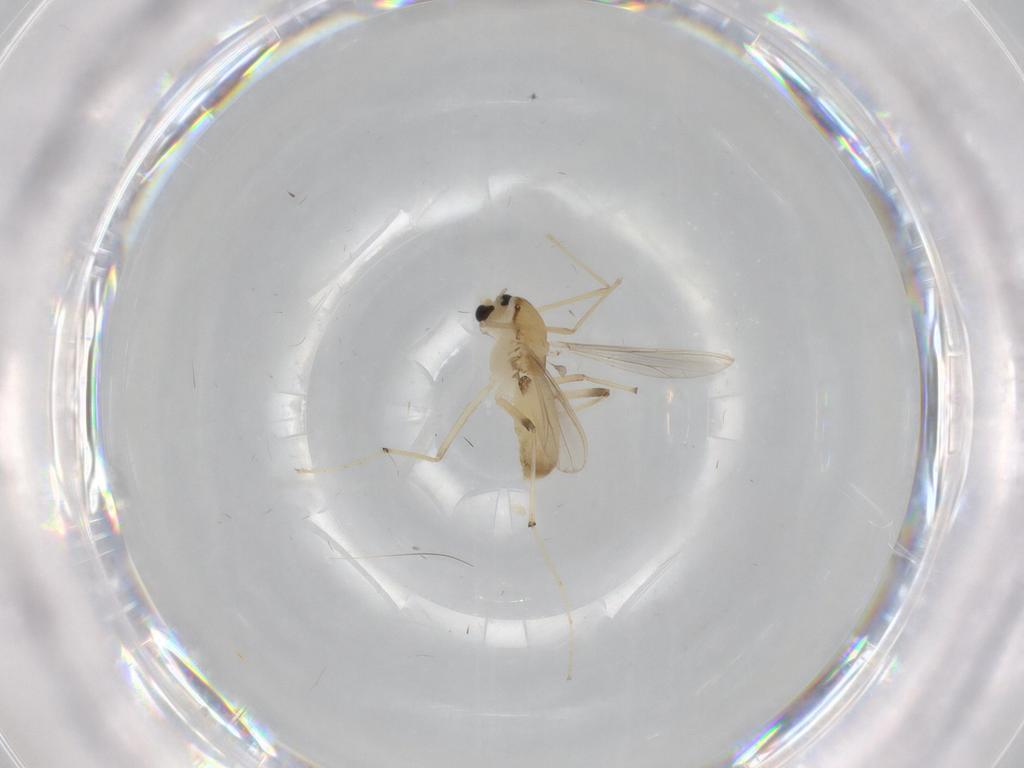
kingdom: Animalia
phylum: Arthropoda
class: Insecta
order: Diptera
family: Chironomidae
